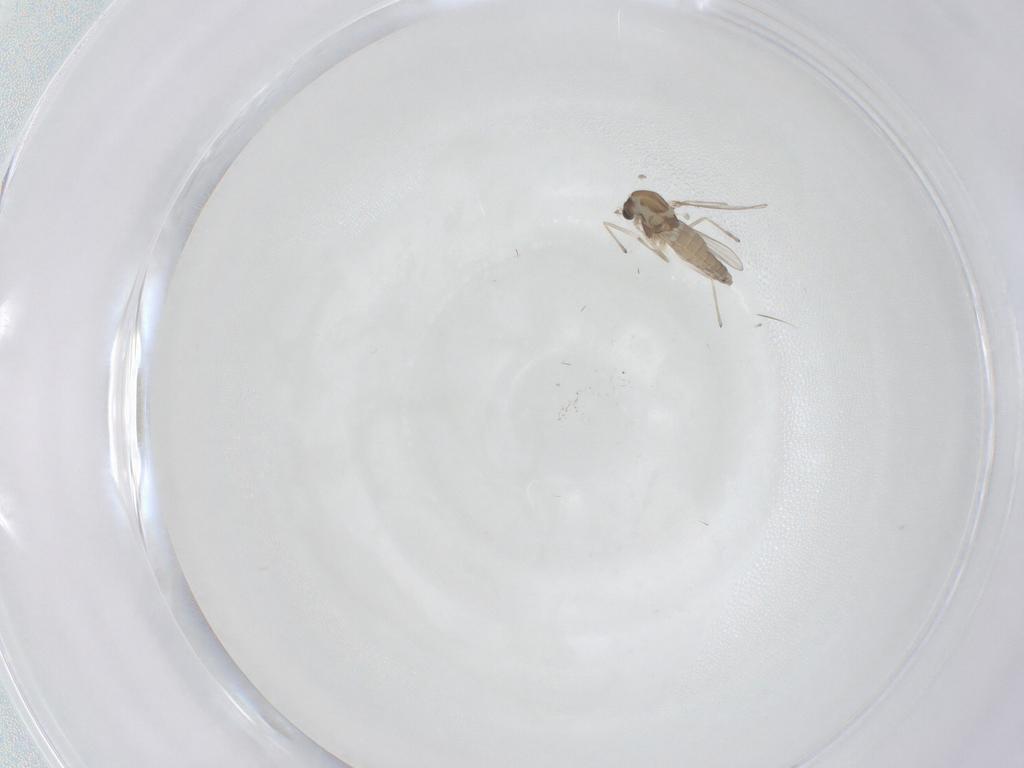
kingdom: Animalia
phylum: Arthropoda
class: Insecta
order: Diptera
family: Chironomidae
